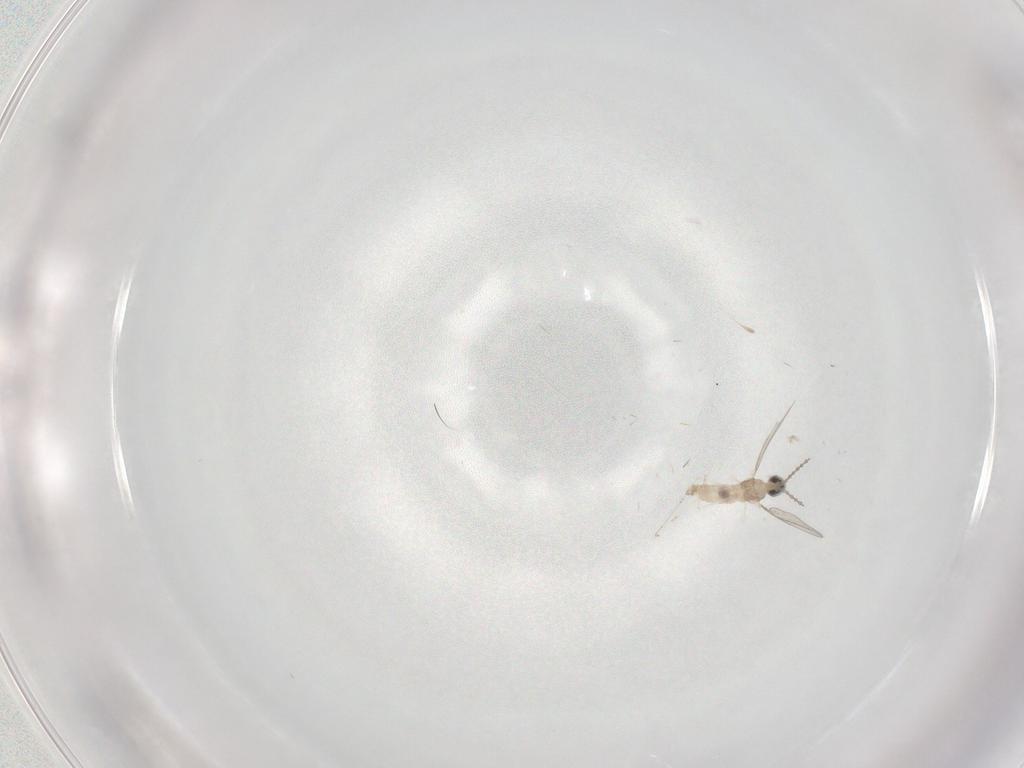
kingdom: Animalia
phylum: Arthropoda
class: Insecta
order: Diptera
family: Cecidomyiidae
